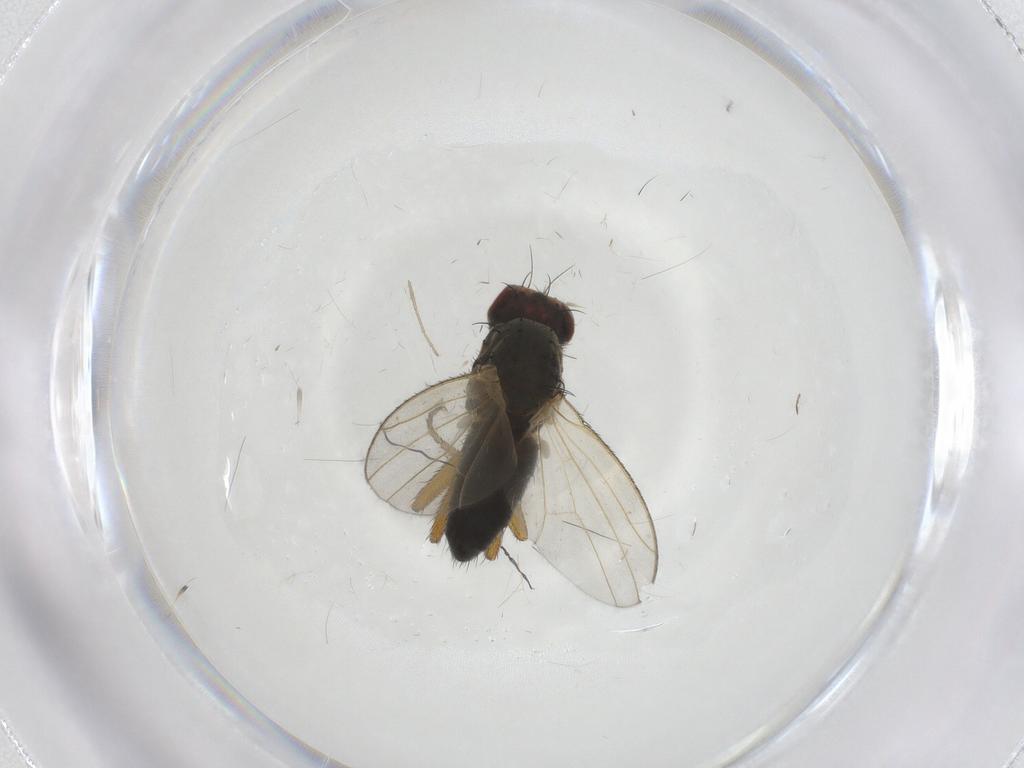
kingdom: Animalia
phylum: Arthropoda
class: Insecta
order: Diptera
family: Heleomyzidae
